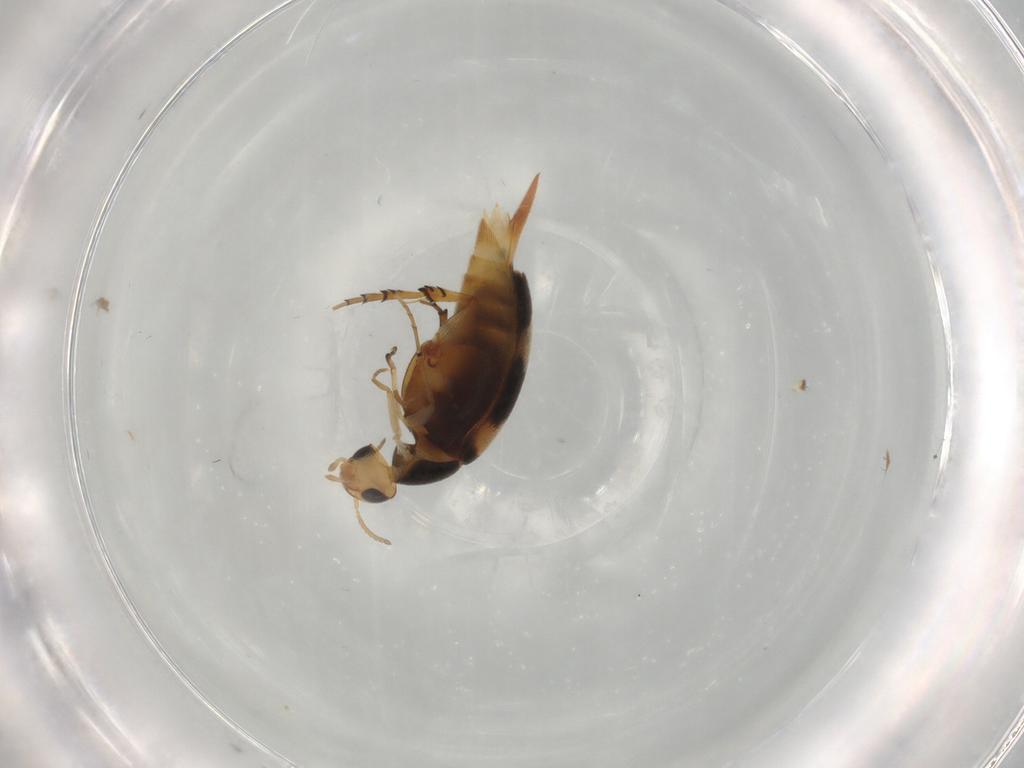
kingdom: Animalia
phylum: Arthropoda
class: Insecta
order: Coleoptera
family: Mordellidae
